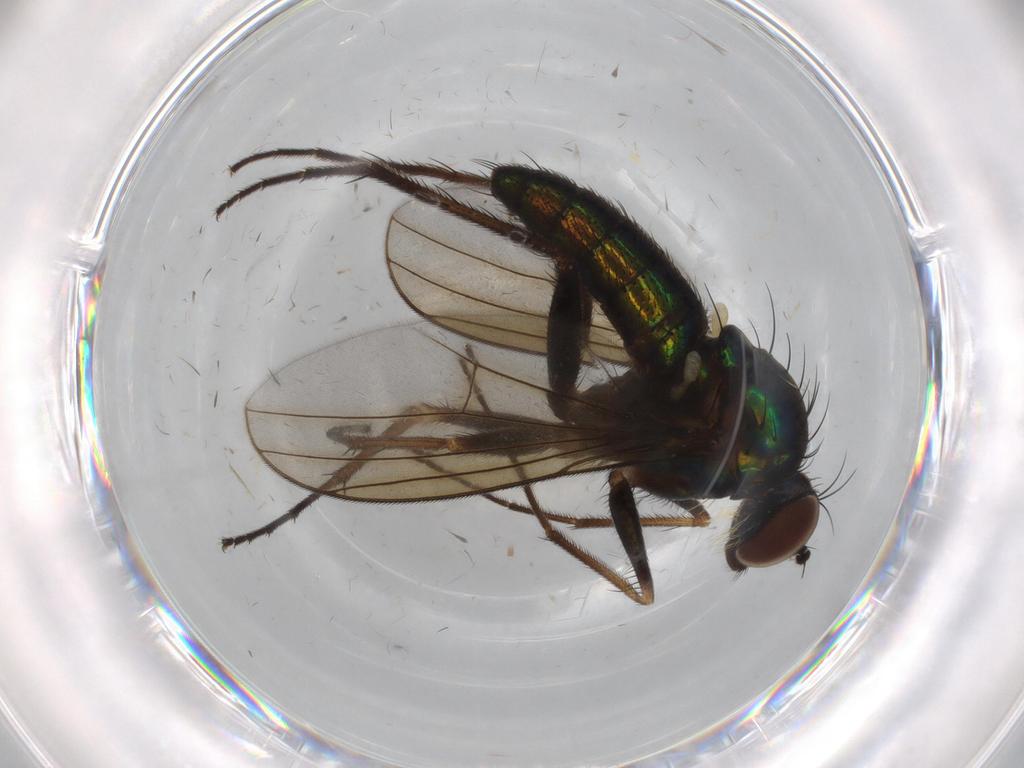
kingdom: Animalia
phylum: Arthropoda
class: Insecta
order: Diptera
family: Dolichopodidae
